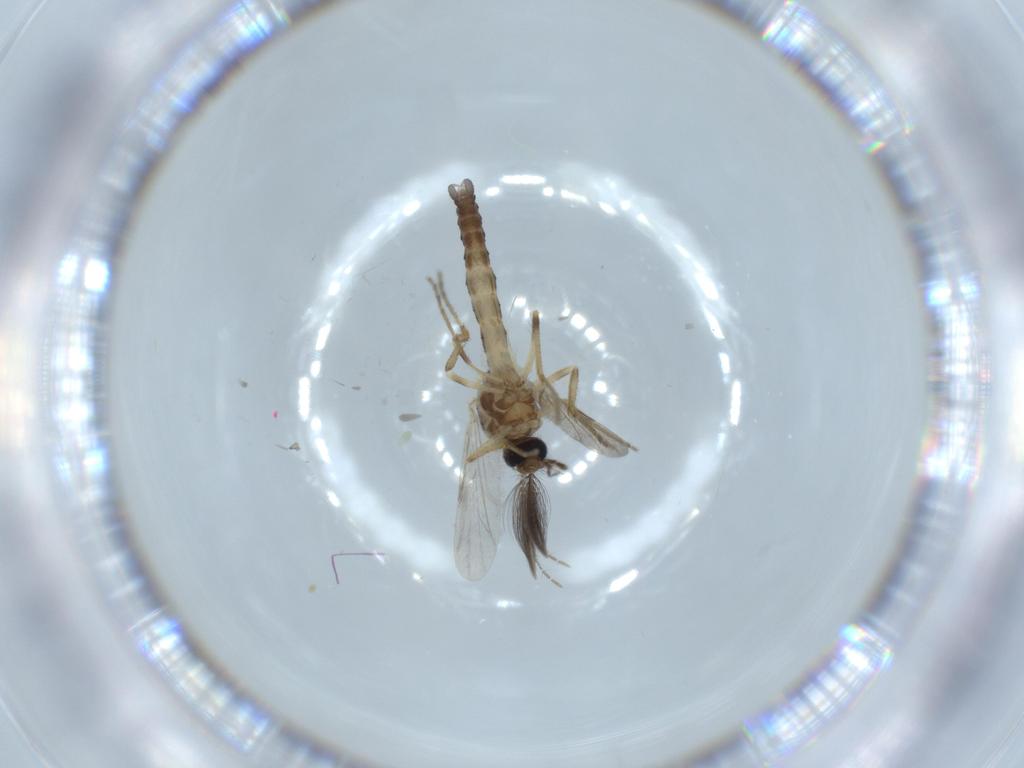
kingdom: Animalia
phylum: Arthropoda
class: Insecta
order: Diptera
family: Ceratopogonidae
